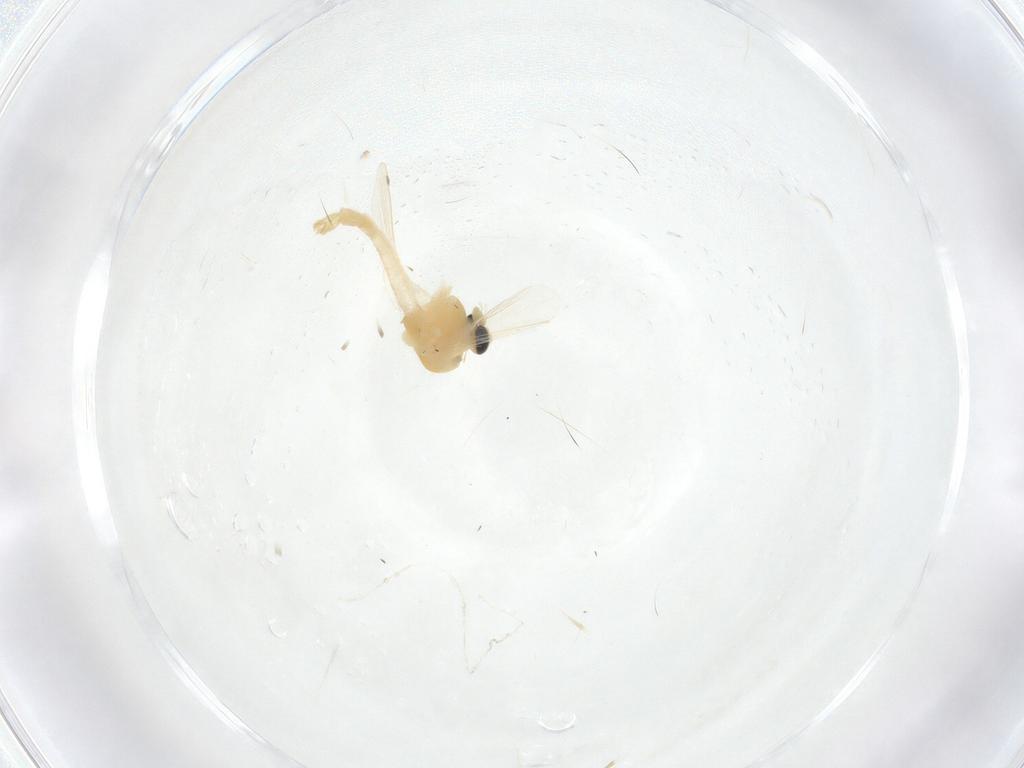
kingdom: Animalia
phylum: Arthropoda
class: Insecta
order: Diptera
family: Chironomidae
